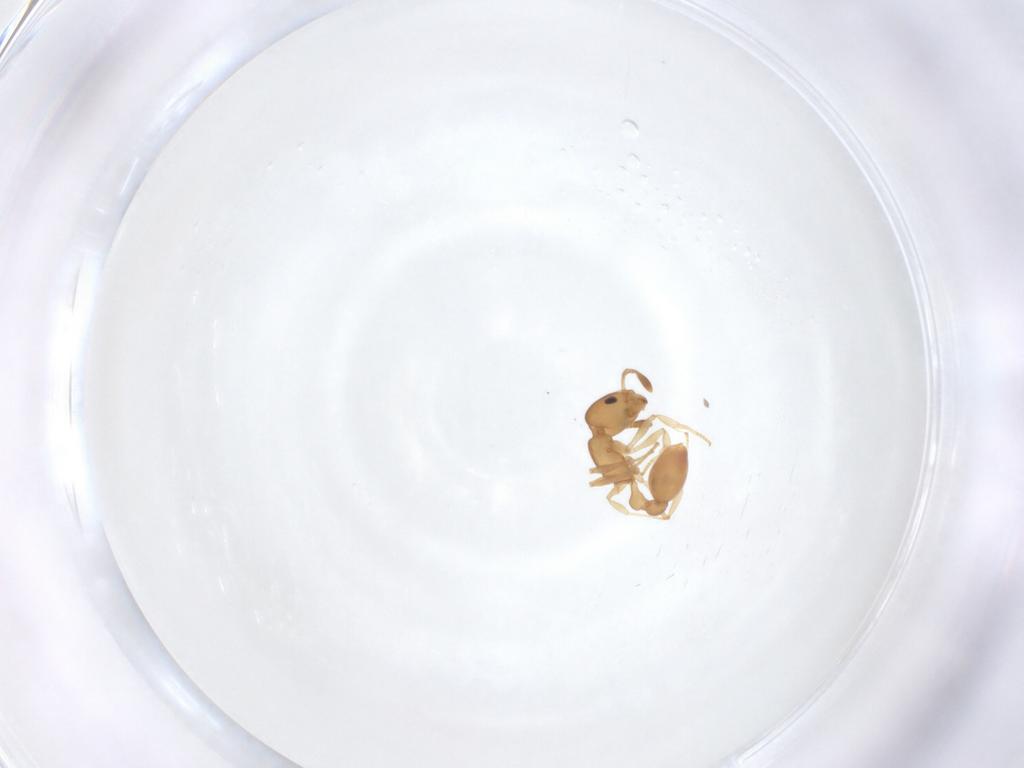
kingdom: Animalia
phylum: Arthropoda
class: Insecta
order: Hymenoptera
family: Formicidae
